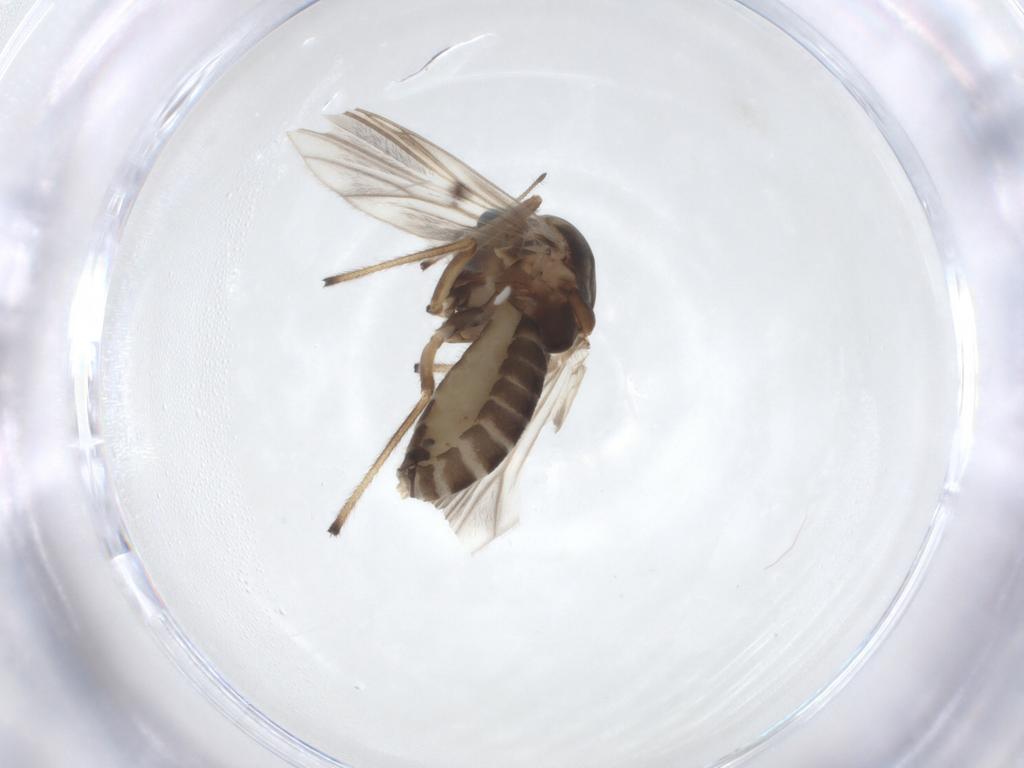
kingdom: Animalia
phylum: Arthropoda
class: Insecta
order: Diptera
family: Chironomidae
